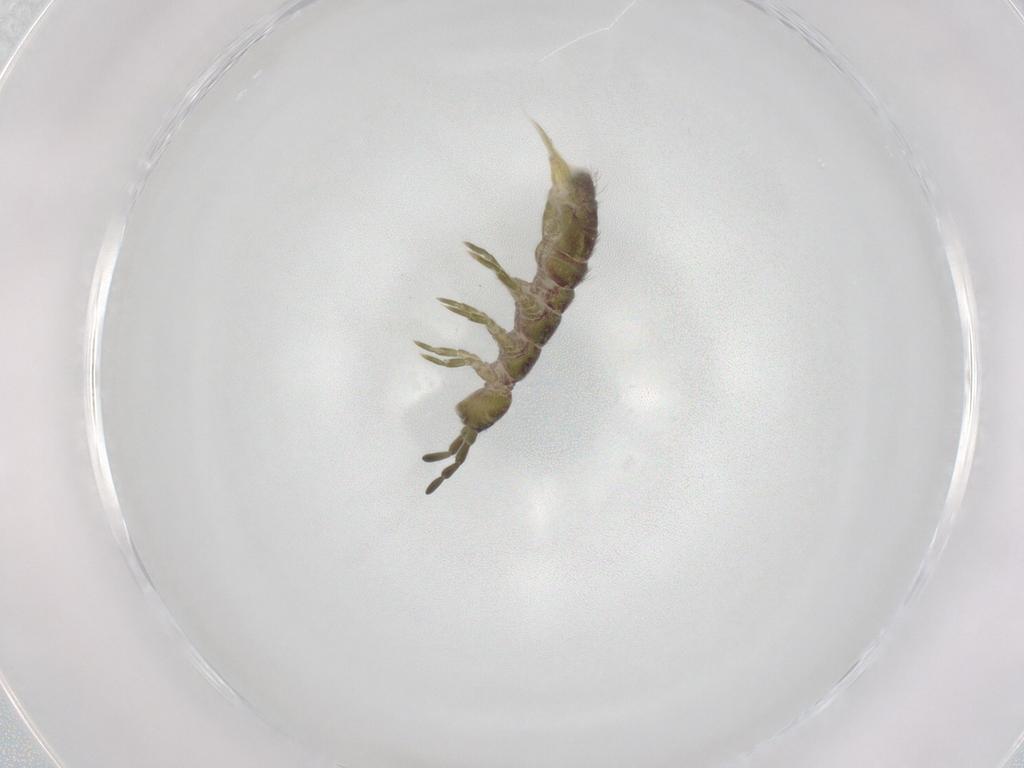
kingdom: Animalia
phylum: Arthropoda
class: Collembola
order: Entomobryomorpha
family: Isotomidae
